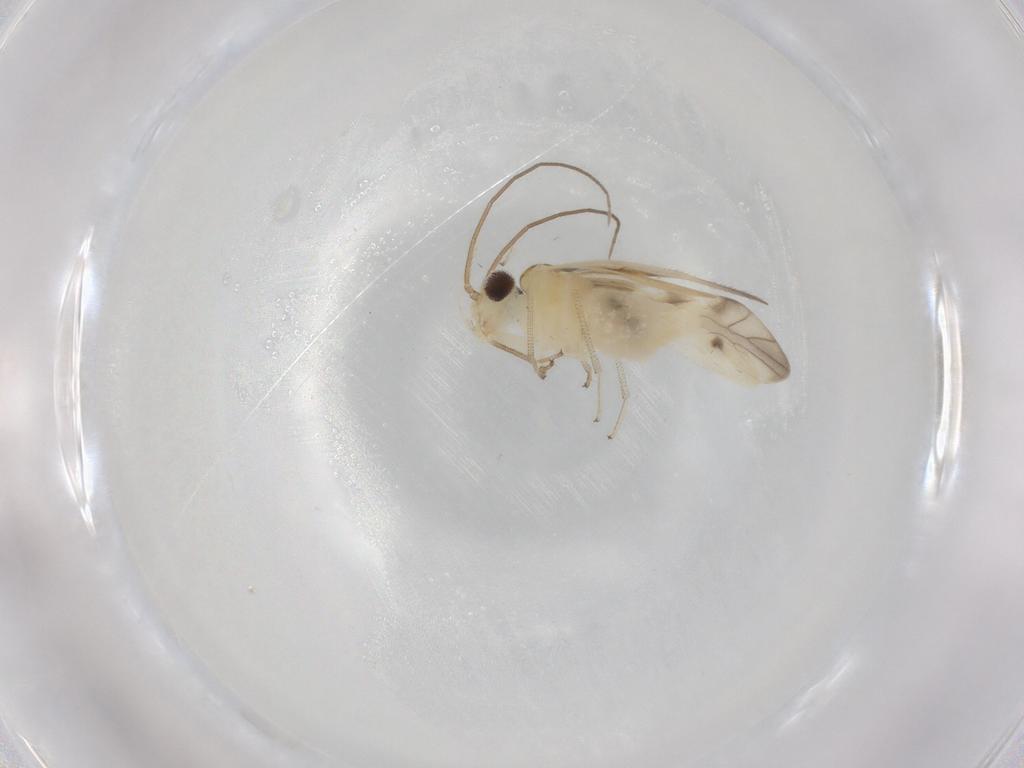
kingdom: Animalia
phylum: Arthropoda
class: Insecta
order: Psocodea
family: Caeciliusidae
